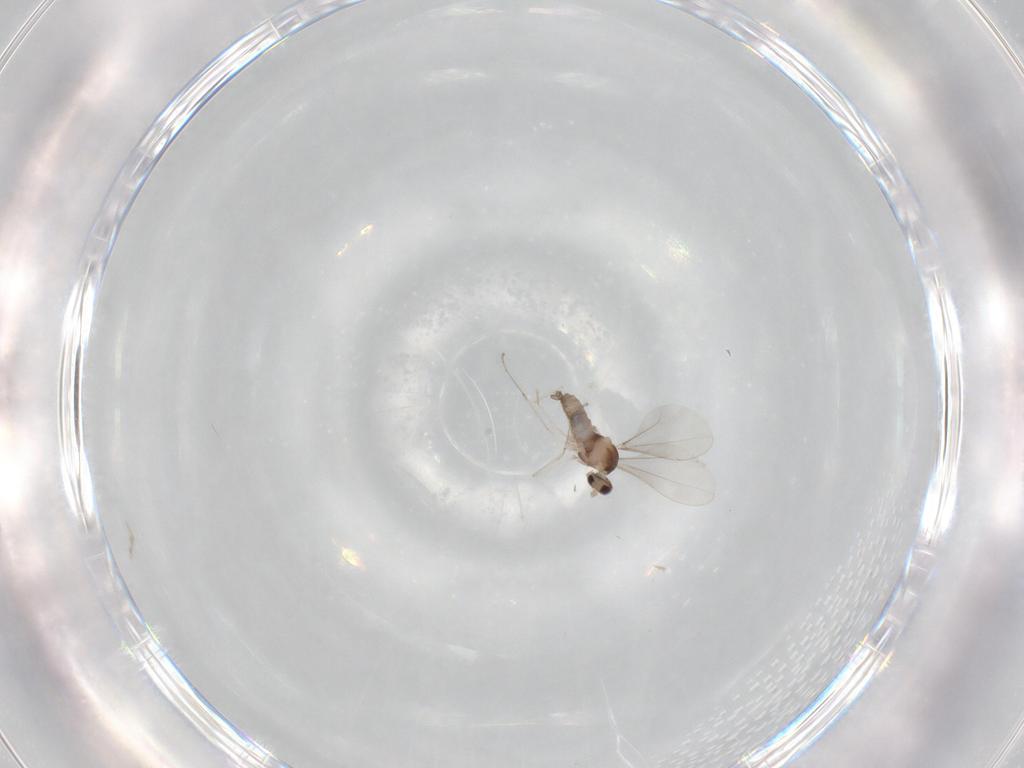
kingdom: Animalia
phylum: Arthropoda
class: Insecta
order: Diptera
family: Cecidomyiidae
